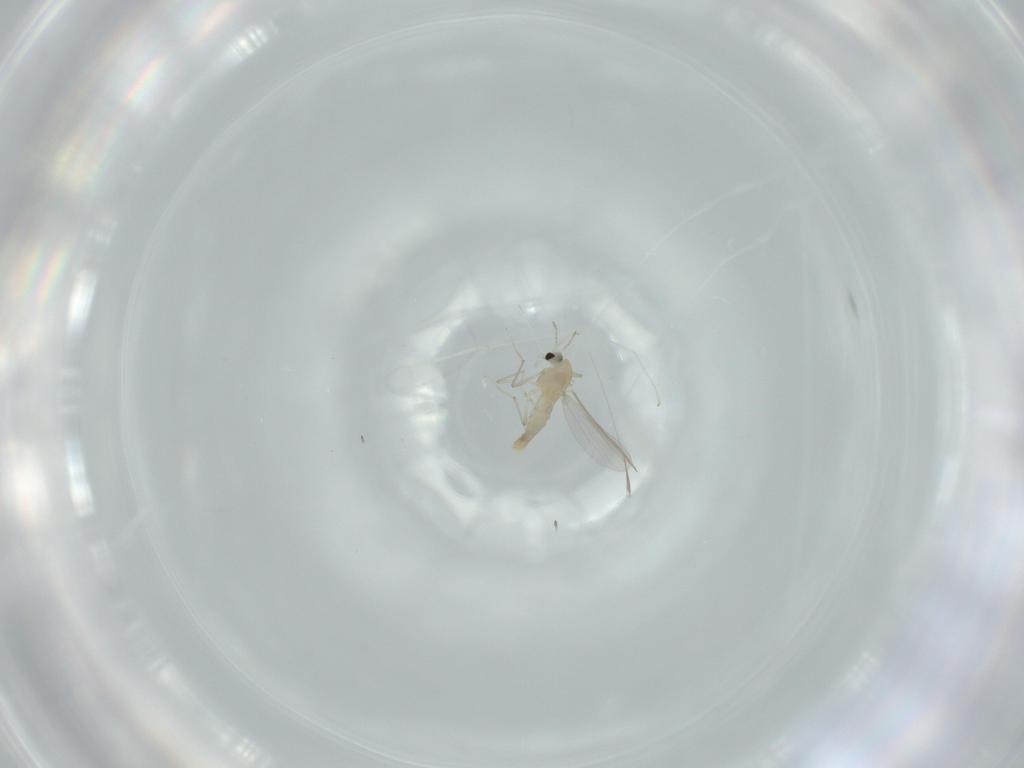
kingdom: Animalia
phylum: Arthropoda
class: Insecta
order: Diptera
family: Chironomidae
